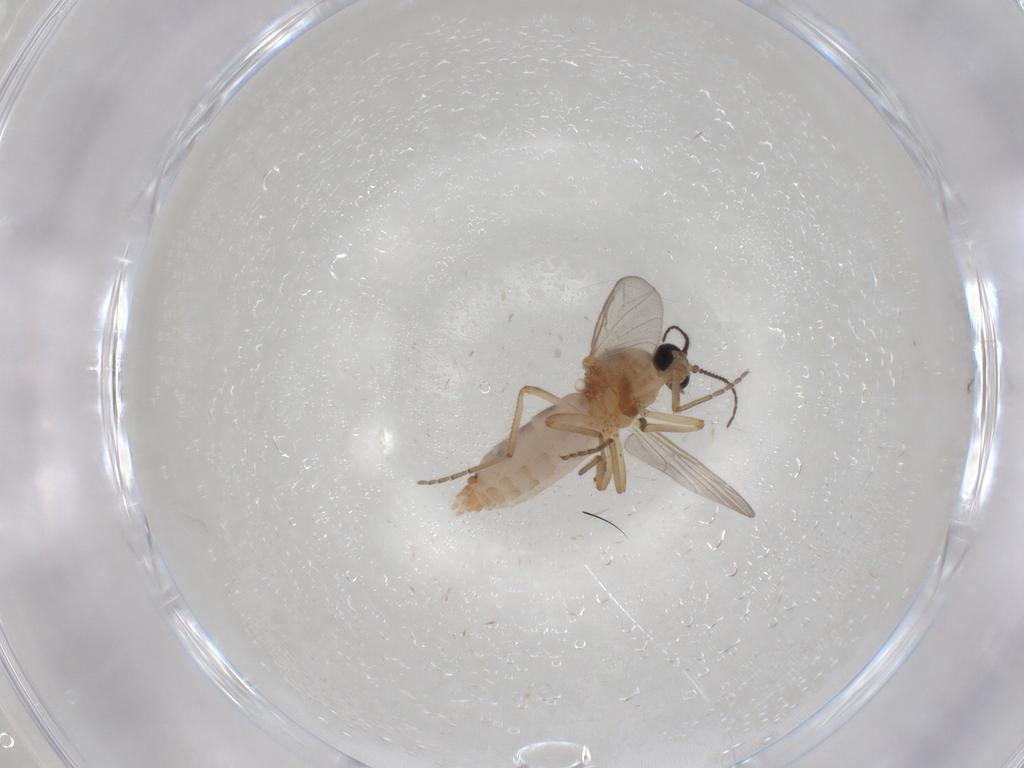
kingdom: Animalia
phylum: Arthropoda
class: Insecta
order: Diptera
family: Ceratopogonidae
